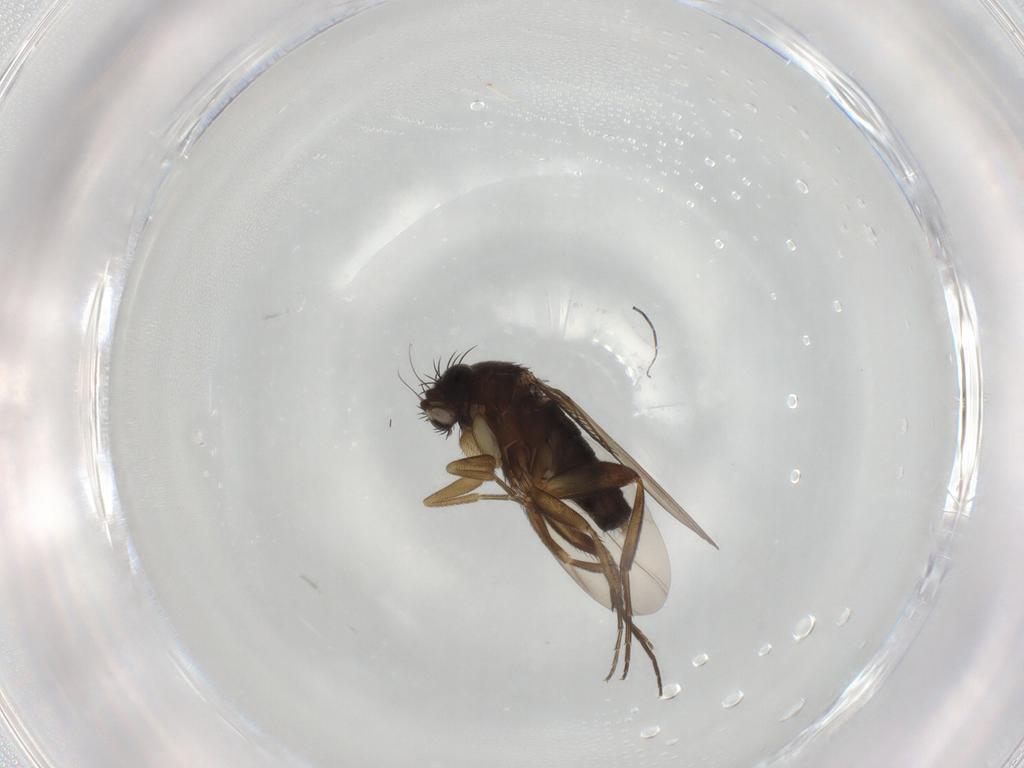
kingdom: Animalia
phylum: Arthropoda
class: Insecta
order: Diptera
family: Phoridae
